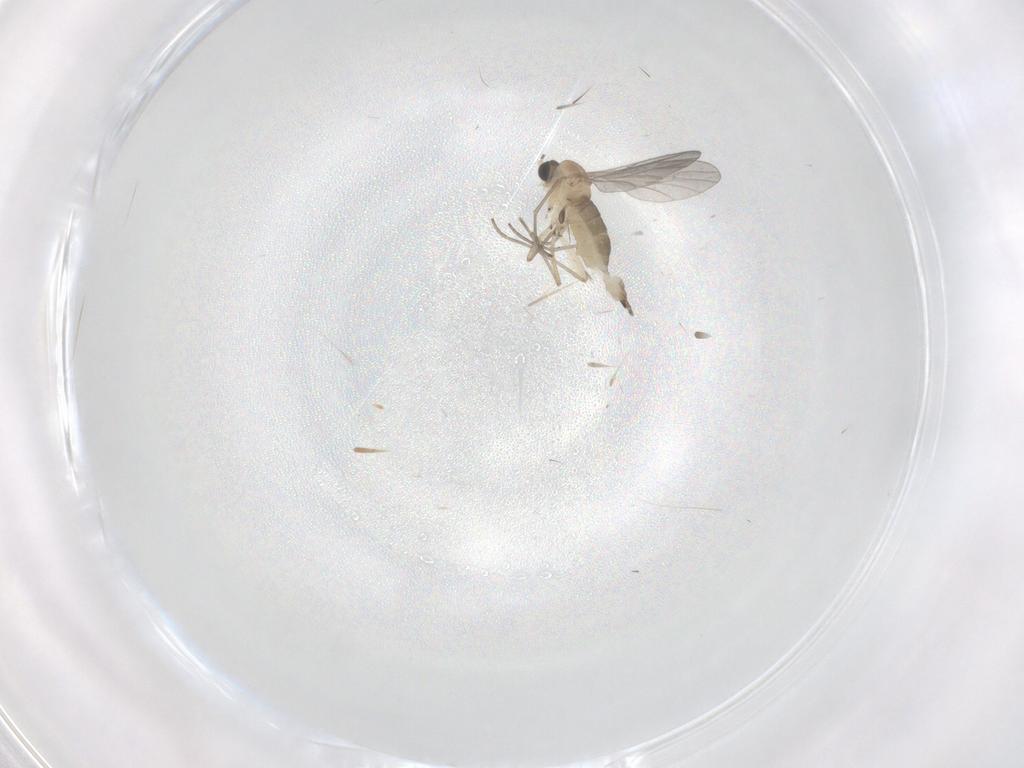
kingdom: Animalia
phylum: Arthropoda
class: Insecta
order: Diptera
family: Sciaridae
